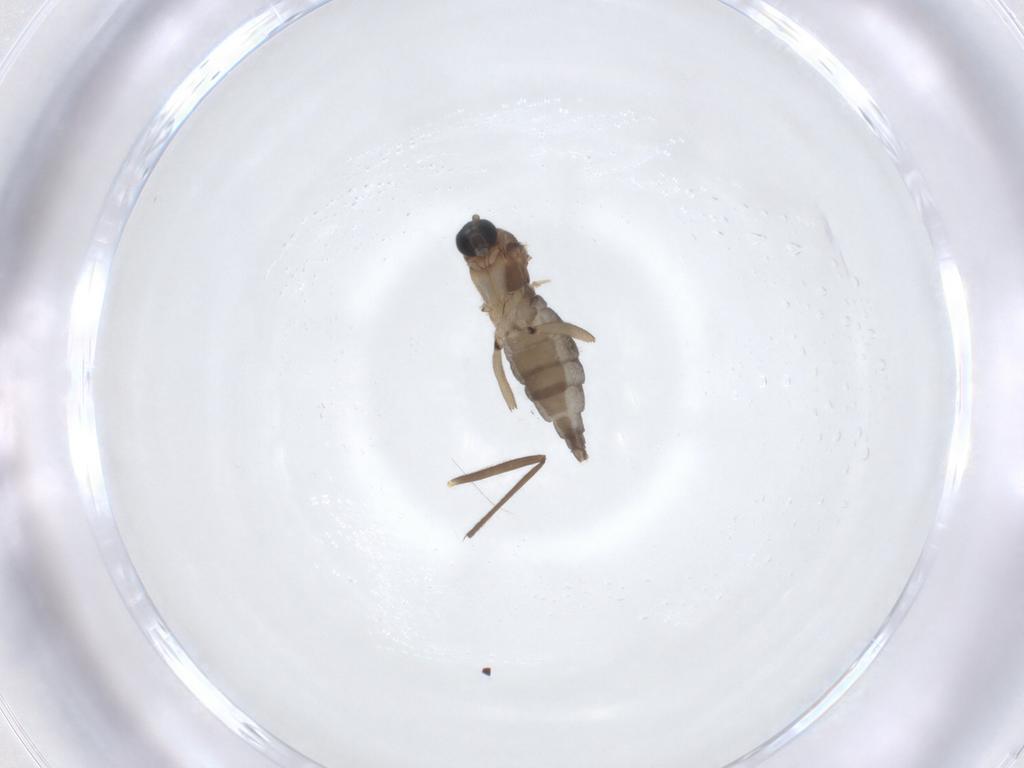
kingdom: Animalia
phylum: Arthropoda
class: Insecta
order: Diptera
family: Sciaridae
